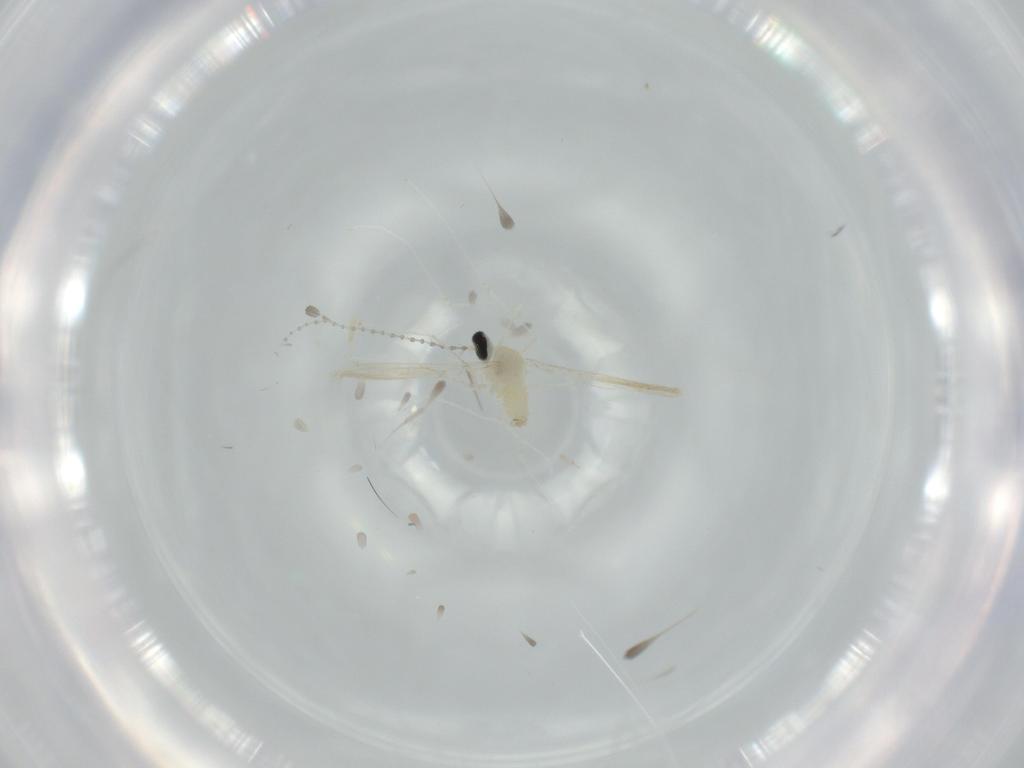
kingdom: Animalia
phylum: Arthropoda
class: Insecta
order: Diptera
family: Cecidomyiidae
